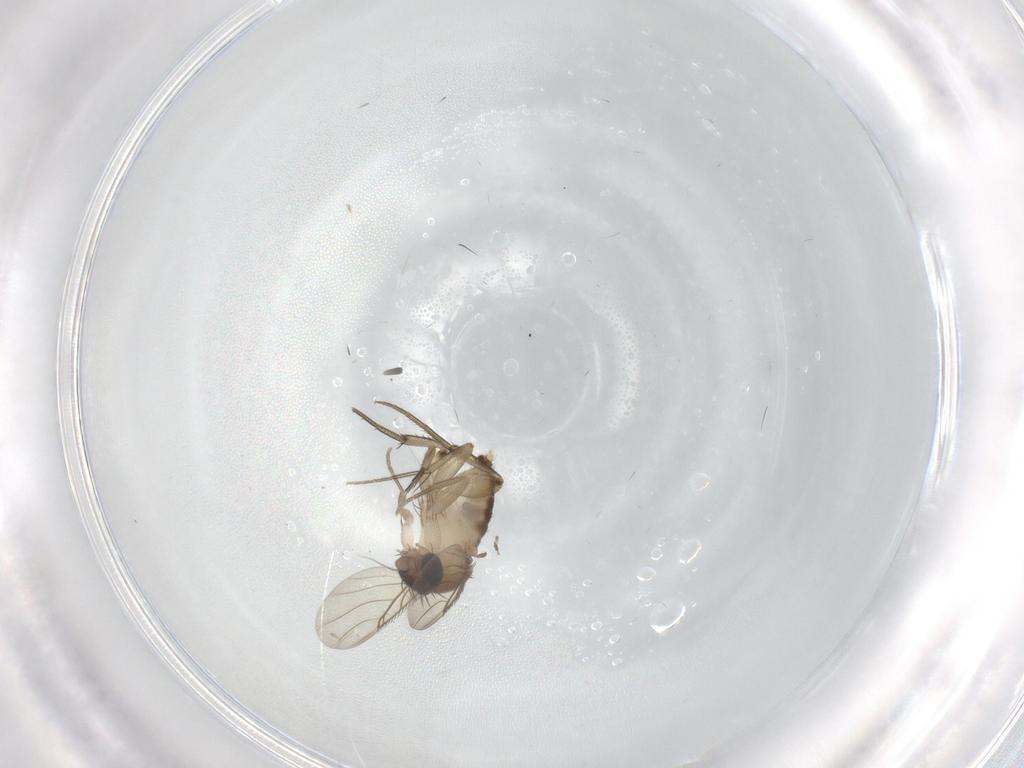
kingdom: Animalia
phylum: Arthropoda
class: Insecta
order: Diptera
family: Phoridae
